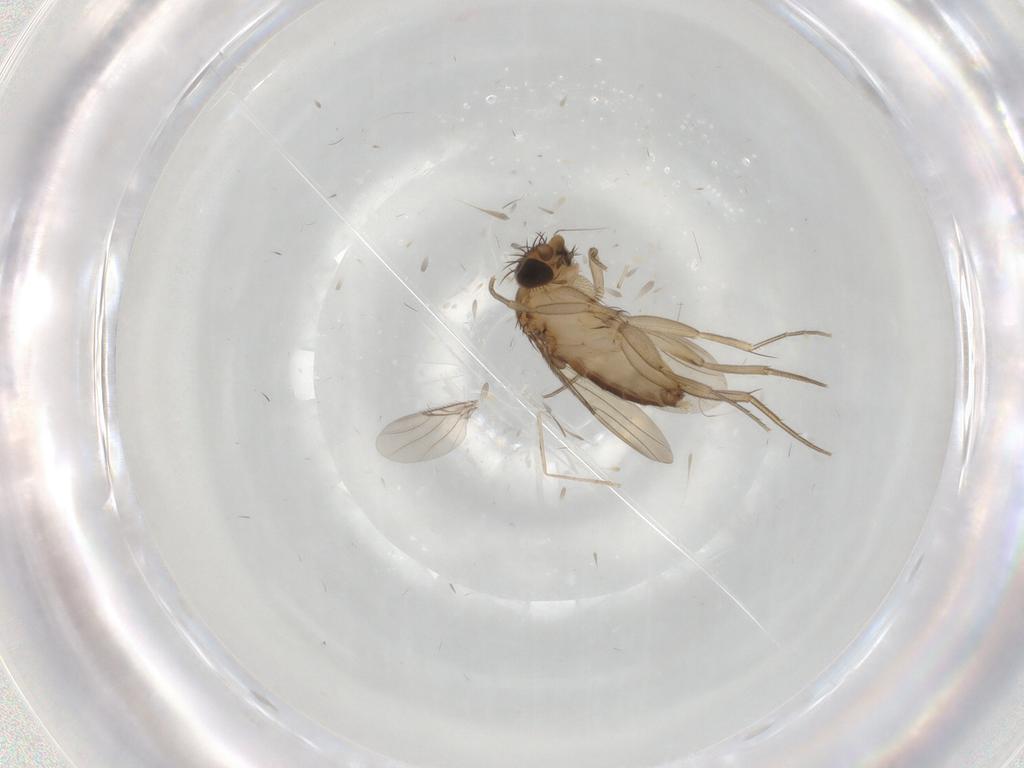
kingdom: Animalia
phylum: Arthropoda
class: Insecta
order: Diptera
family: Phoridae
